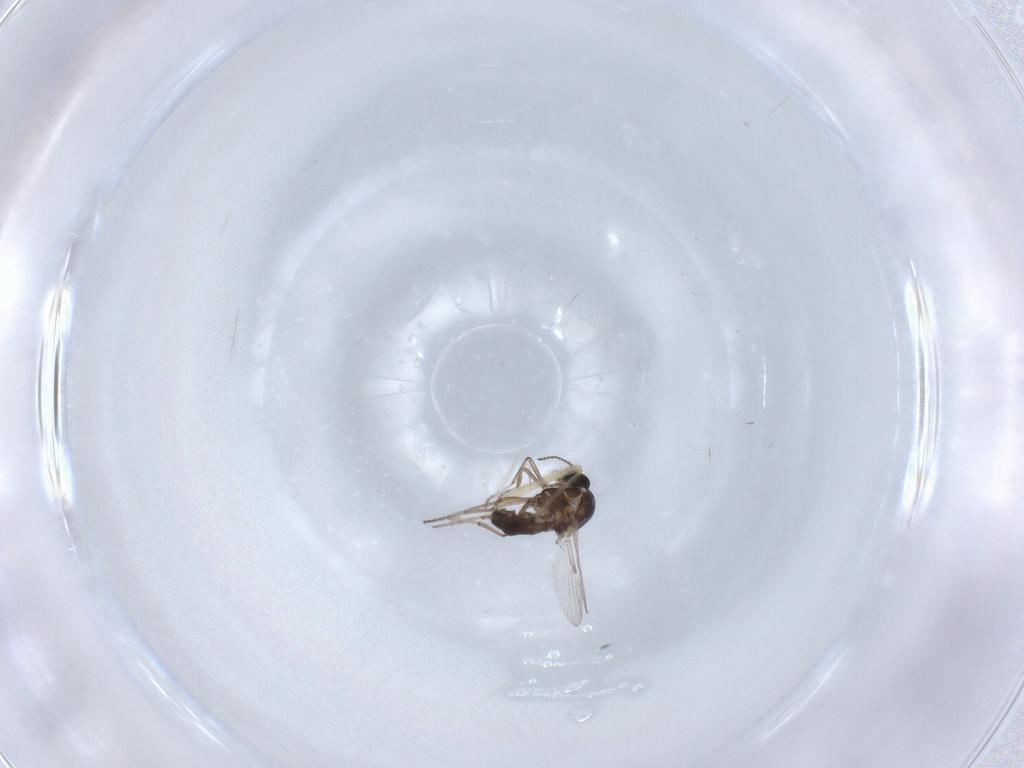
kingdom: Animalia
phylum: Arthropoda
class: Insecta
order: Diptera
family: Ceratopogonidae
